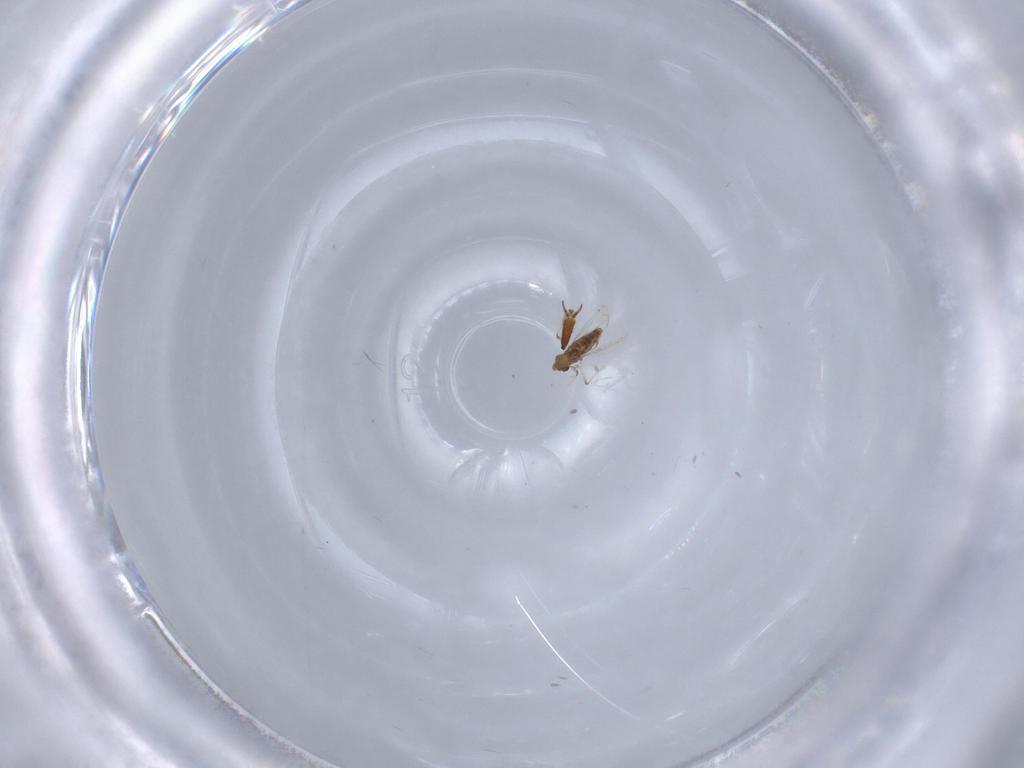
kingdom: Animalia
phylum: Arthropoda
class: Insecta
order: Diptera
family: Chironomidae
